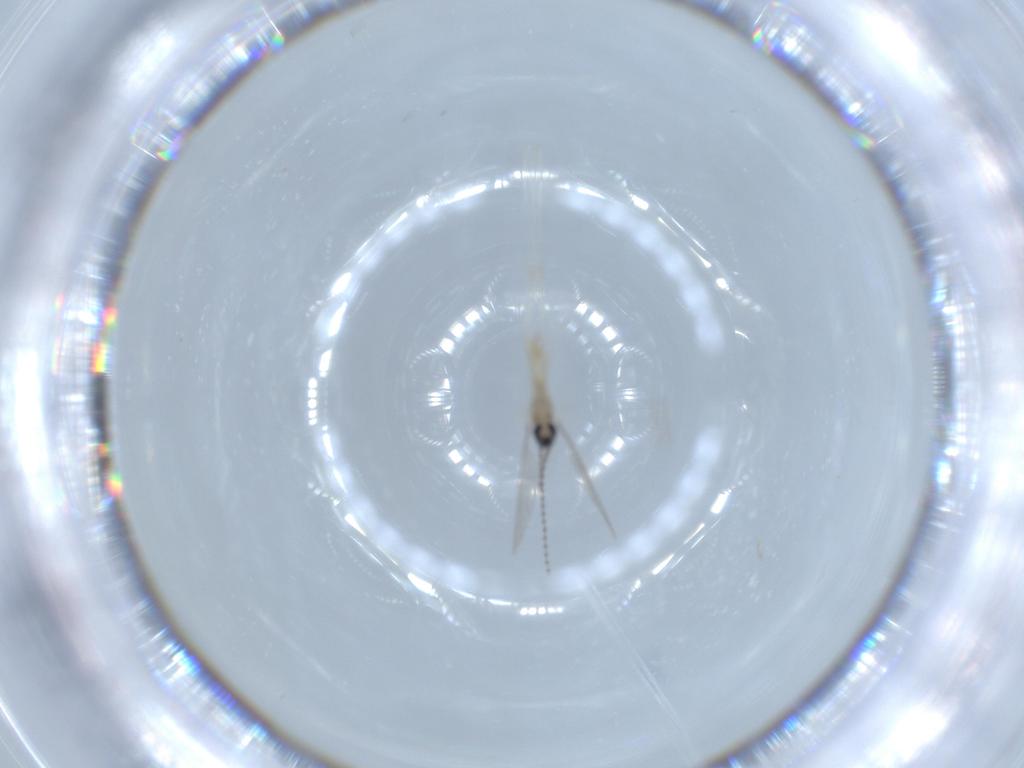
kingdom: Animalia
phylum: Arthropoda
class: Insecta
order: Diptera
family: Cecidomyiidae
